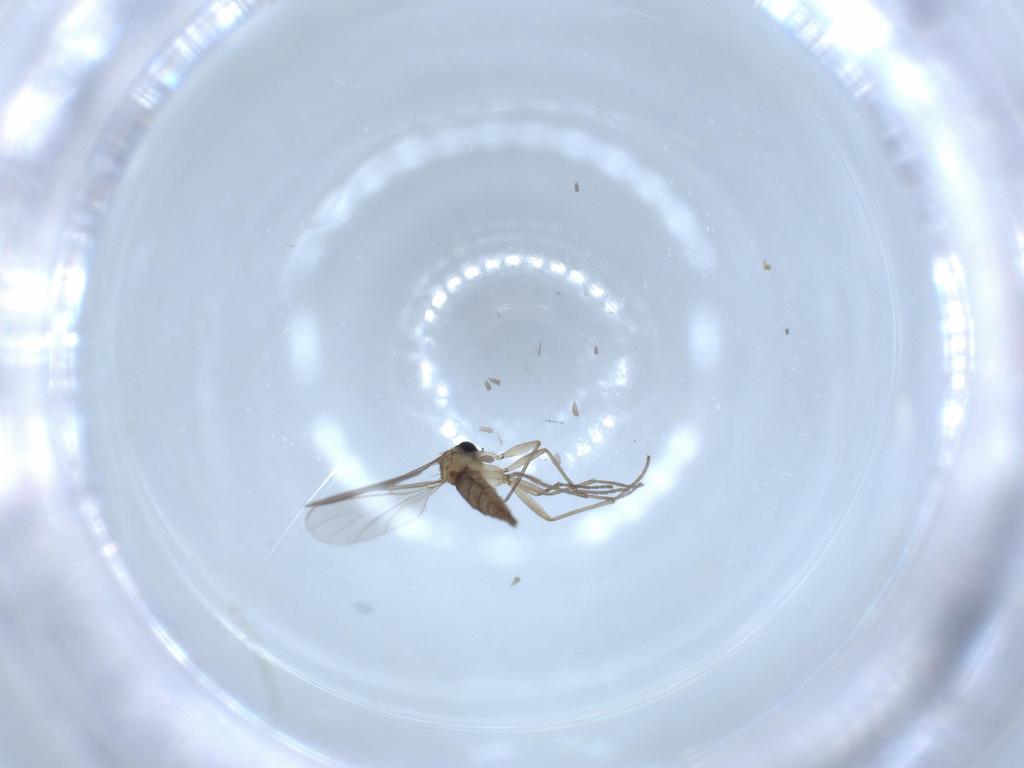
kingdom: Animalia
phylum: Arthropoda
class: Insecta
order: Diptera
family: Sciaridae
